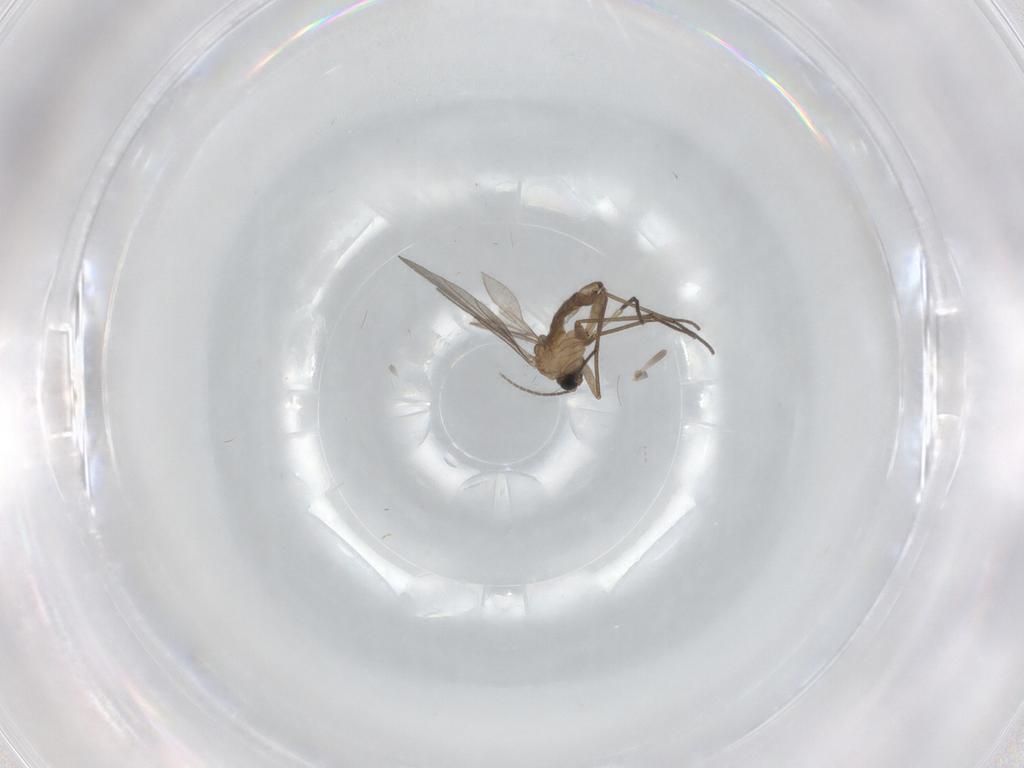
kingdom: Animalia
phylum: Arthropoda
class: Insecta
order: Diptera
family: Sciaridae
